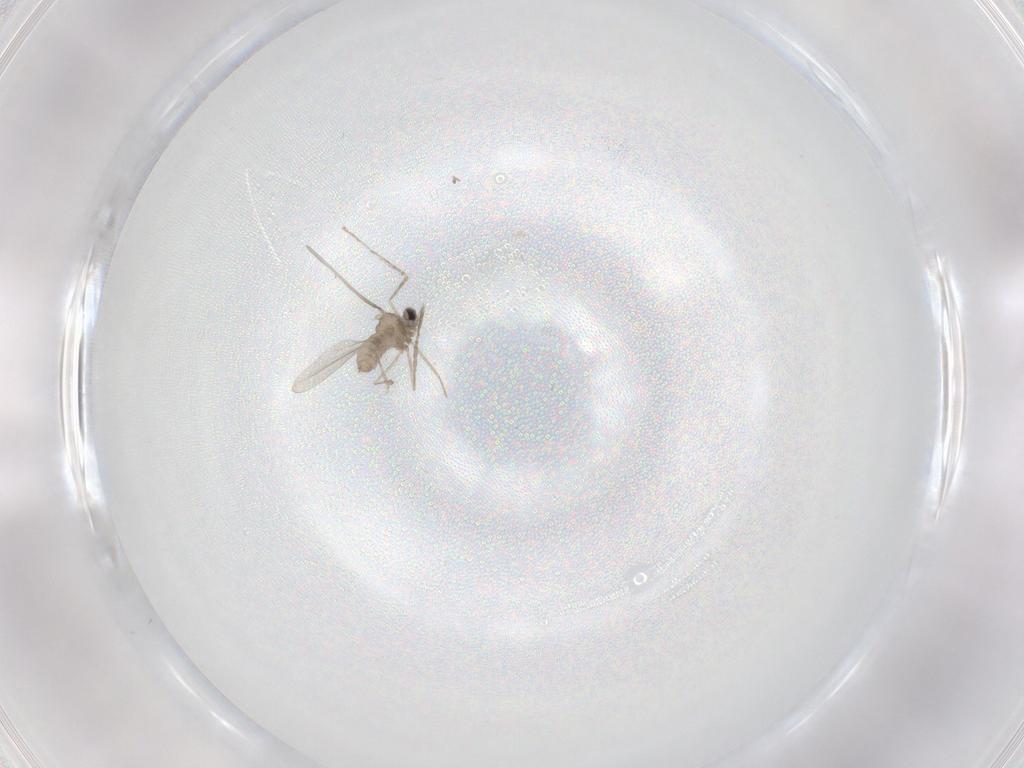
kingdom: Animalia
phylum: Arthropoda
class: Insecta
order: Diptera
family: Cecidomyiidae
